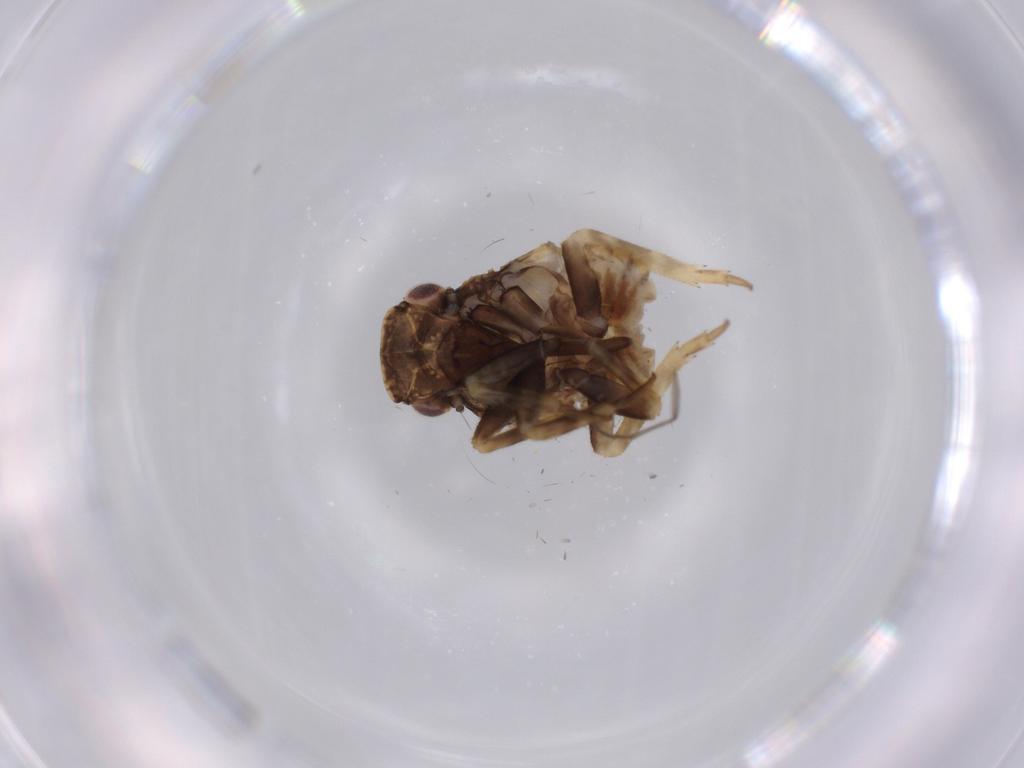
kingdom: Animalia
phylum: Arthropoda
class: Insecta
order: Hemiptera
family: Fulgoroidea_incertae_sedis
